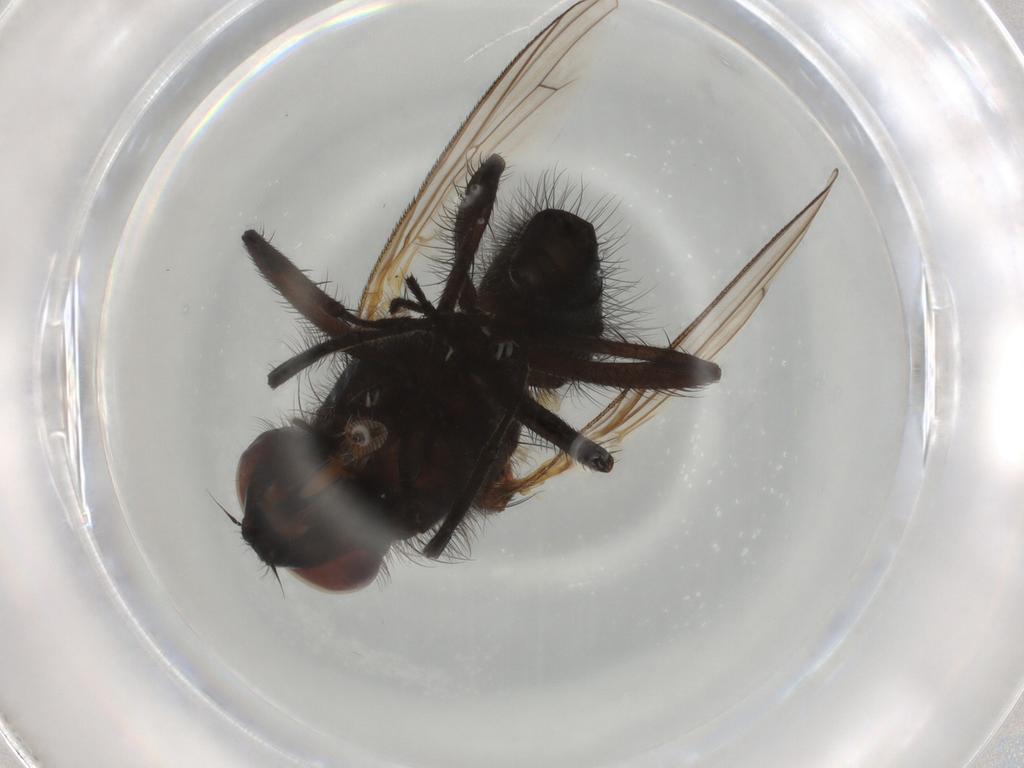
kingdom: Animalia
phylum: Arthropoda
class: Insecta
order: Diptera
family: Anthomyiidae
